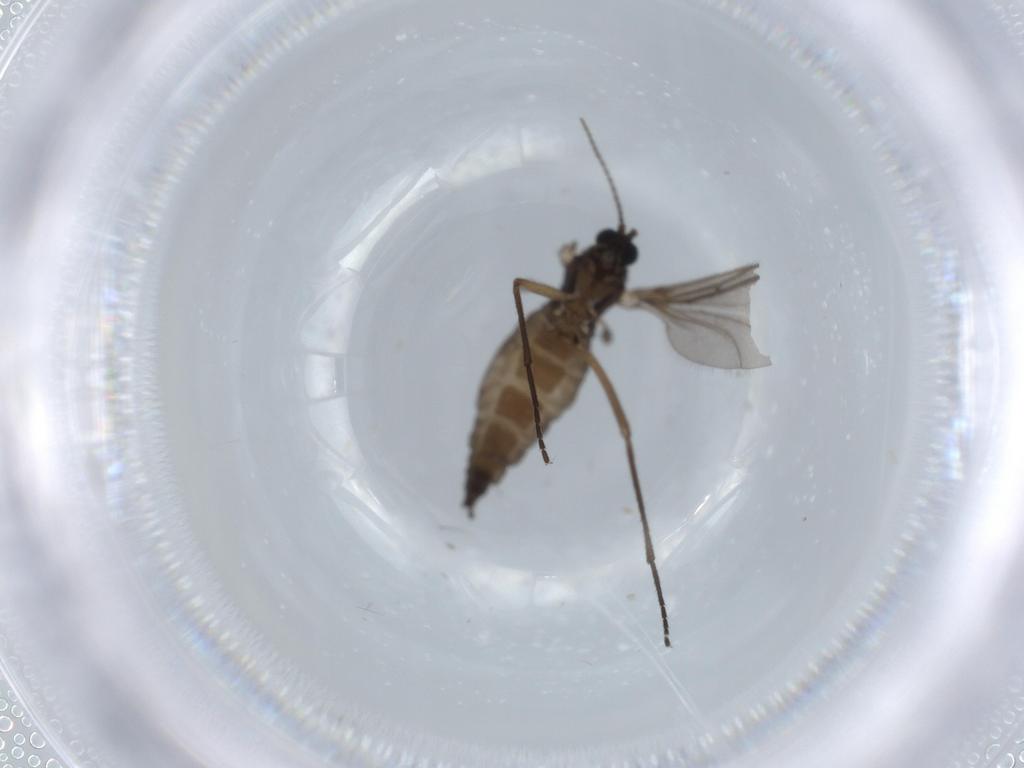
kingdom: Animalia
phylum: Arthropoda
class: Insecta
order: Diptera
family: Sciaridae
